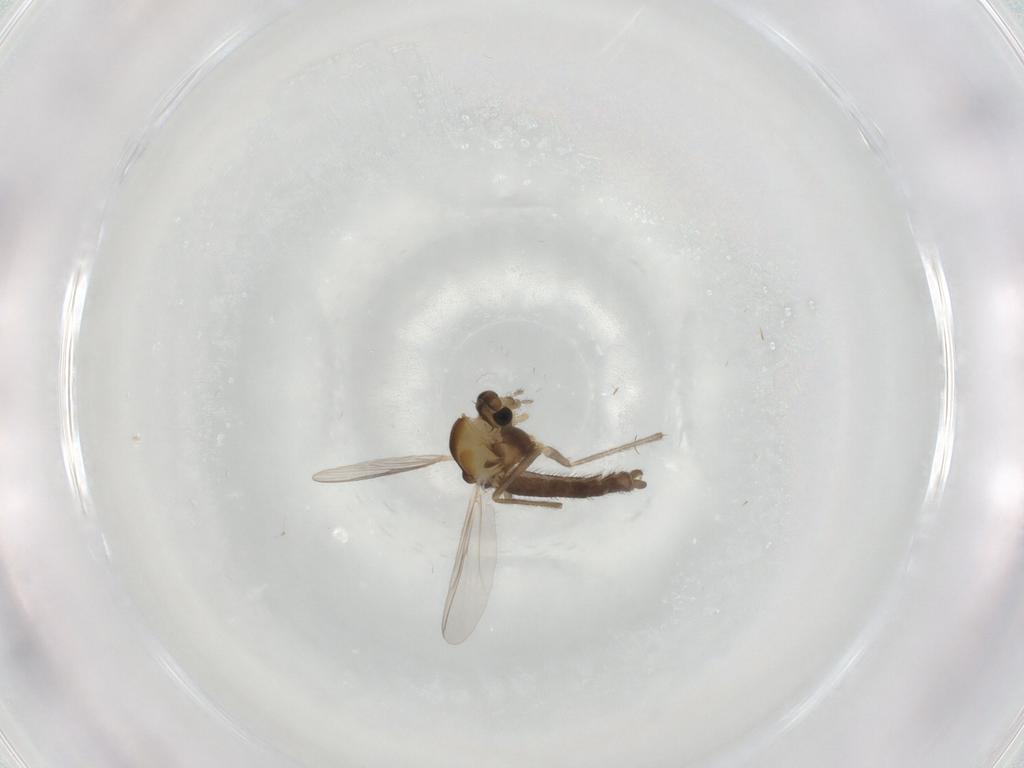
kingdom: Animalia
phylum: Arthropoda
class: Insecta
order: Diptera
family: Chironomidae
